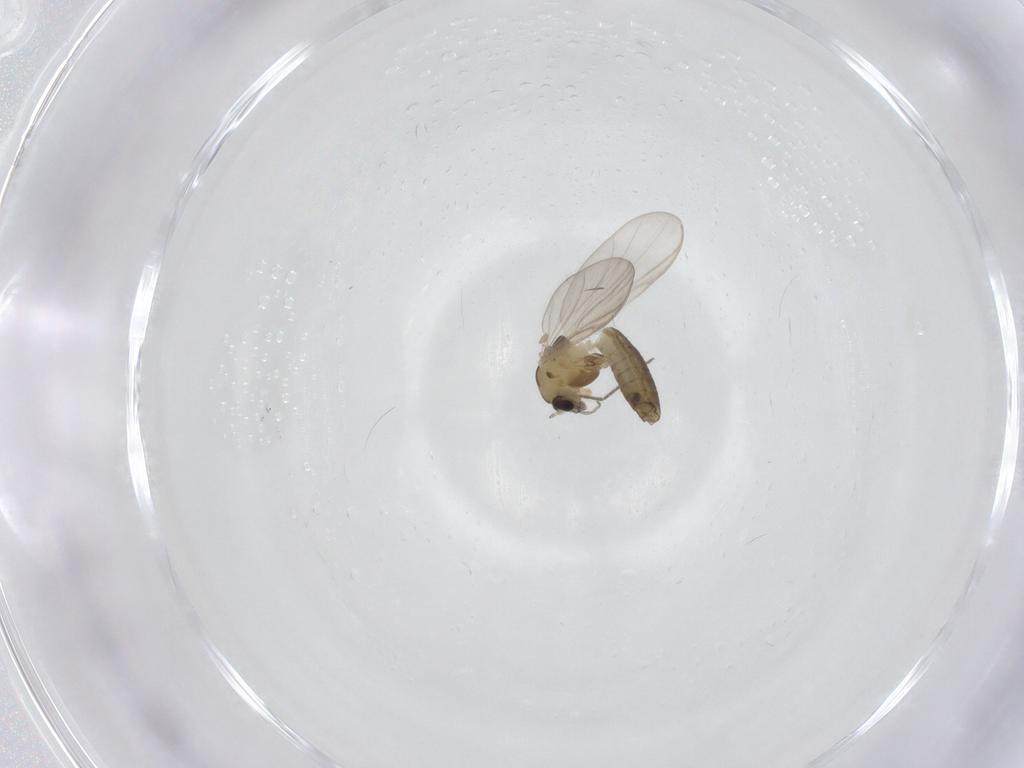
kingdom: Animalia
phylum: Arthropoda
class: Insecta
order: Diptera
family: Chironomidae
